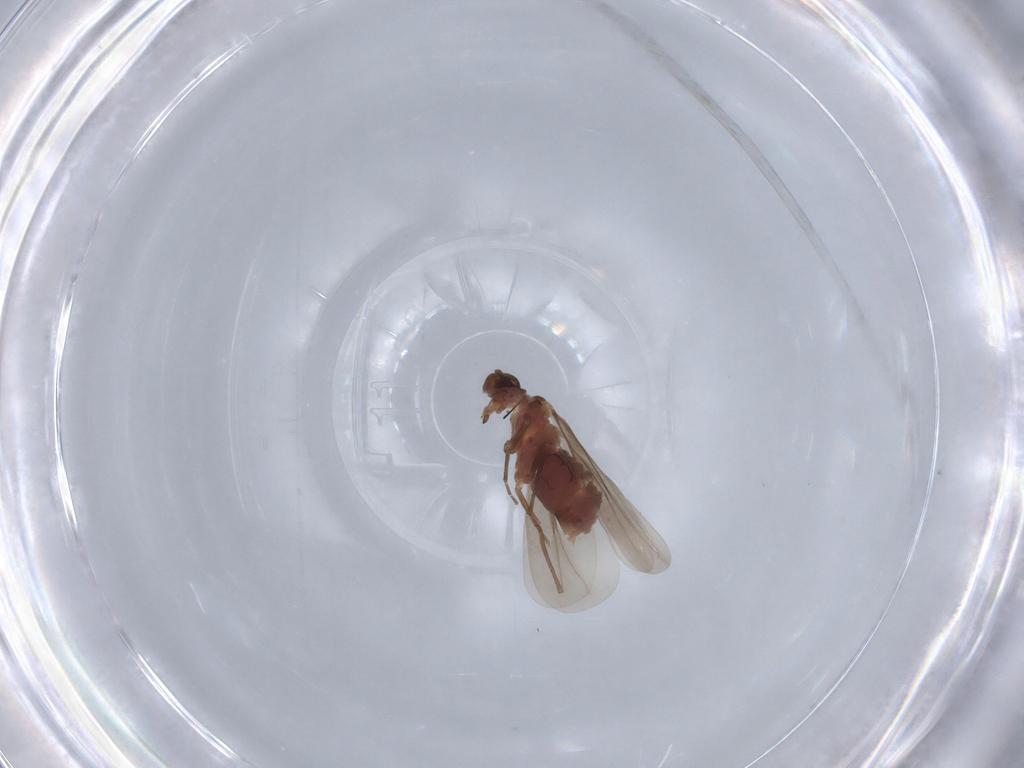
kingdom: Animalia
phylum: Arthropoda
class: Insecta
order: Hemiptera
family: Aleyrodidae
